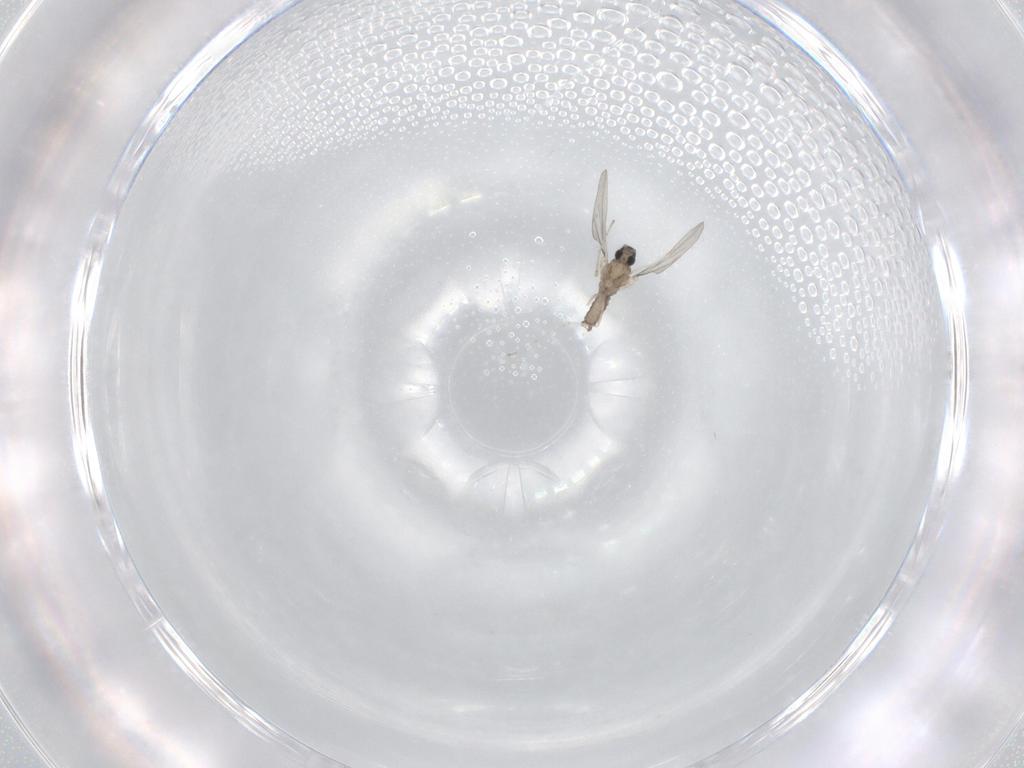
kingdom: Animalia
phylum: Arthropoda
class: Insecta
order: Diptera
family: Cecidomyiidae
